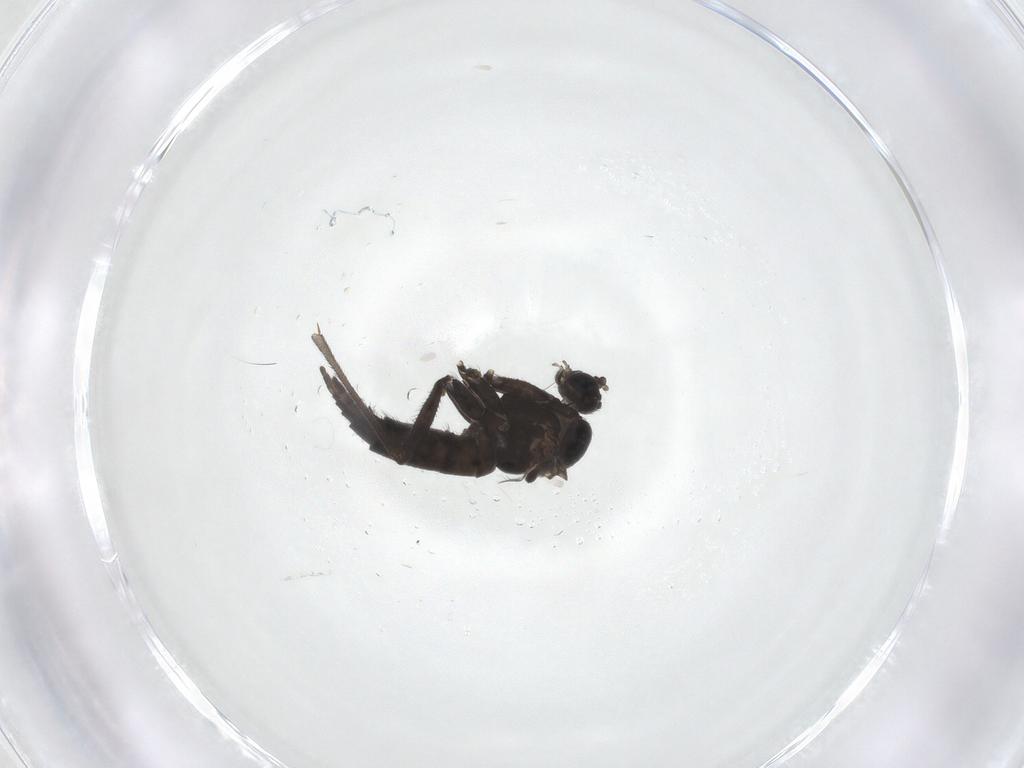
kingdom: Animalia
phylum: Arthropoda
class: Insecta
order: Diptera
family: Sciaridae
